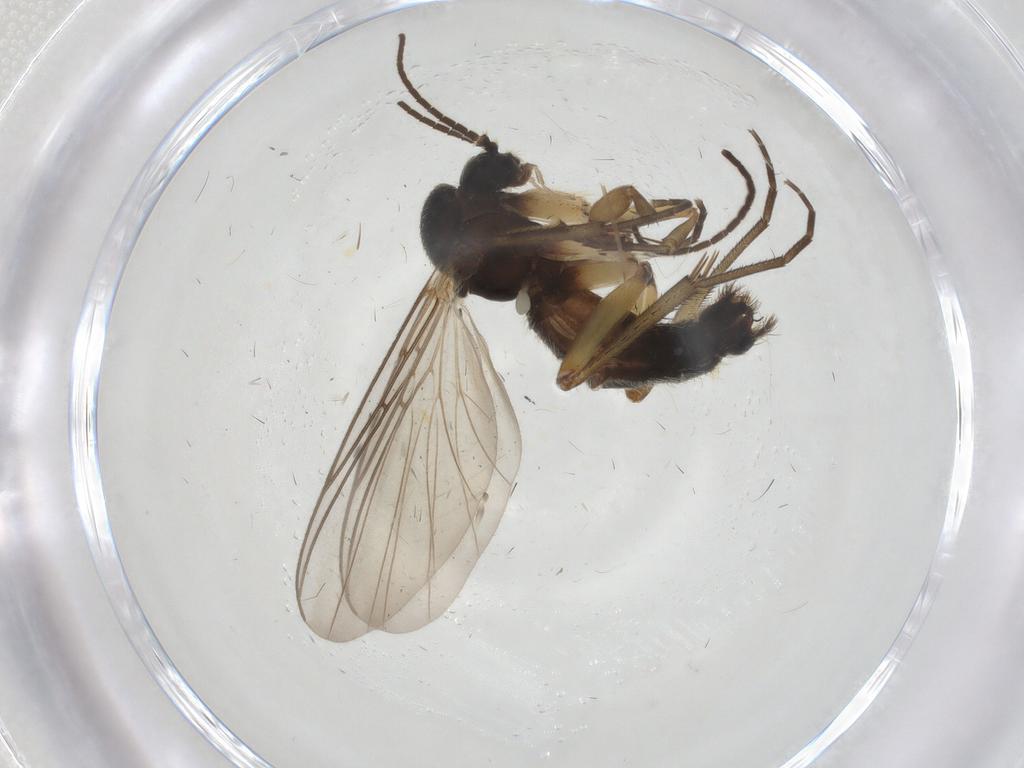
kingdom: Animalia
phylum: Arthropoda
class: Insecta
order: Diptera
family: Mycetophilidae
